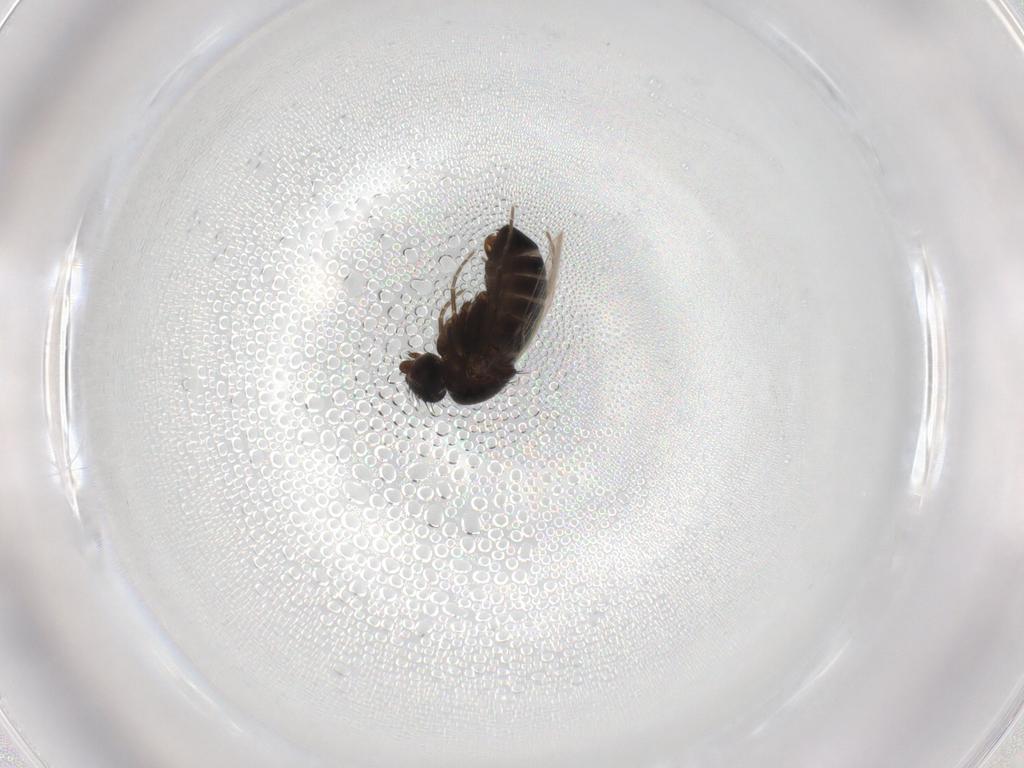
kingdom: Animalia
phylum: Arthropoda
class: Insecta
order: Diptera
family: Phoridae
